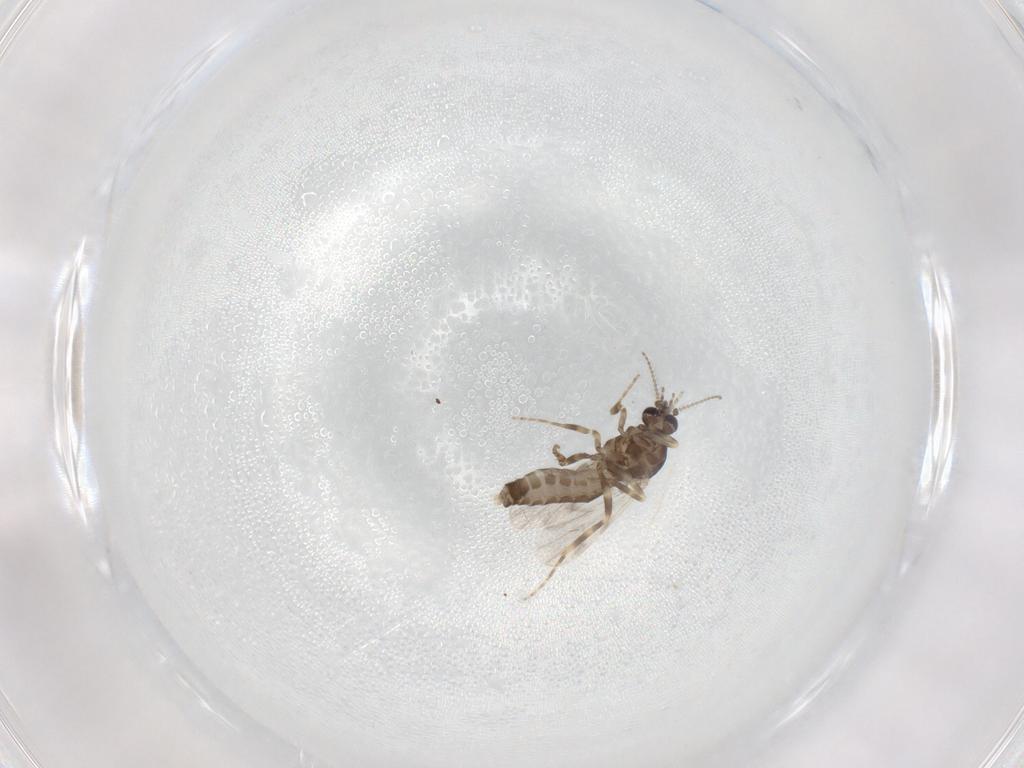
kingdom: Animalia
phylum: Arthropoda
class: Insecta
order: Diptera
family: Ceratopogonidae
